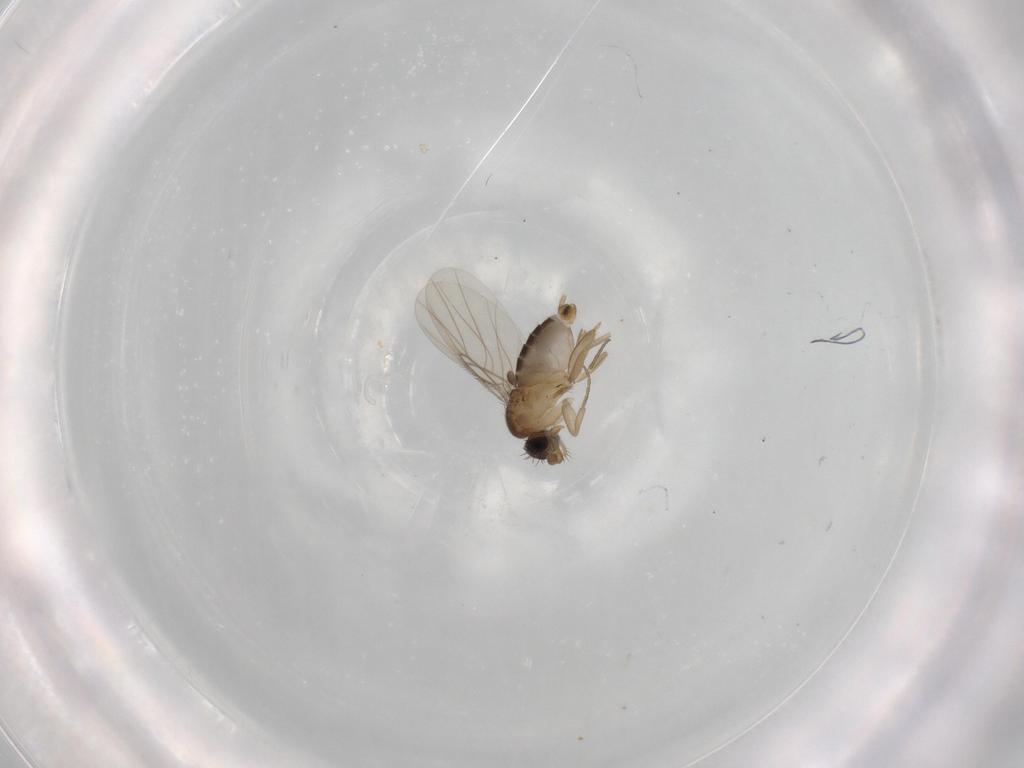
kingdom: Animalia
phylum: Arthropoda
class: Insecta
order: Diptera
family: Phoridae
